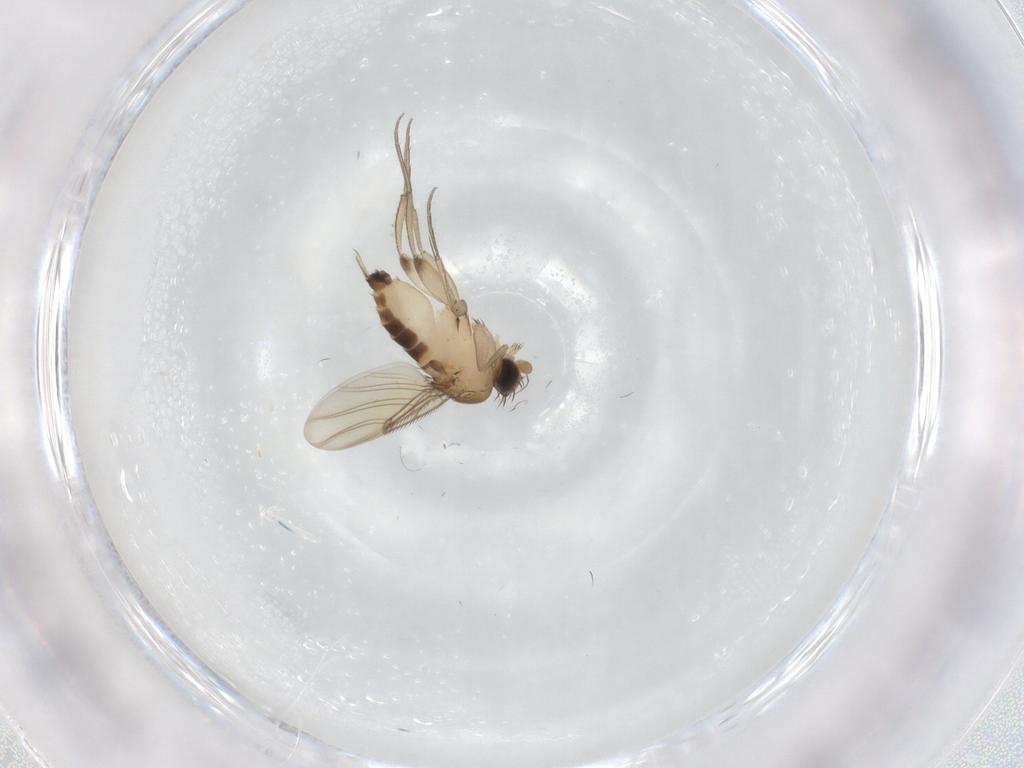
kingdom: Animalia
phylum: Arthropoda
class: Insecta
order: Diptera
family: Phoridae
